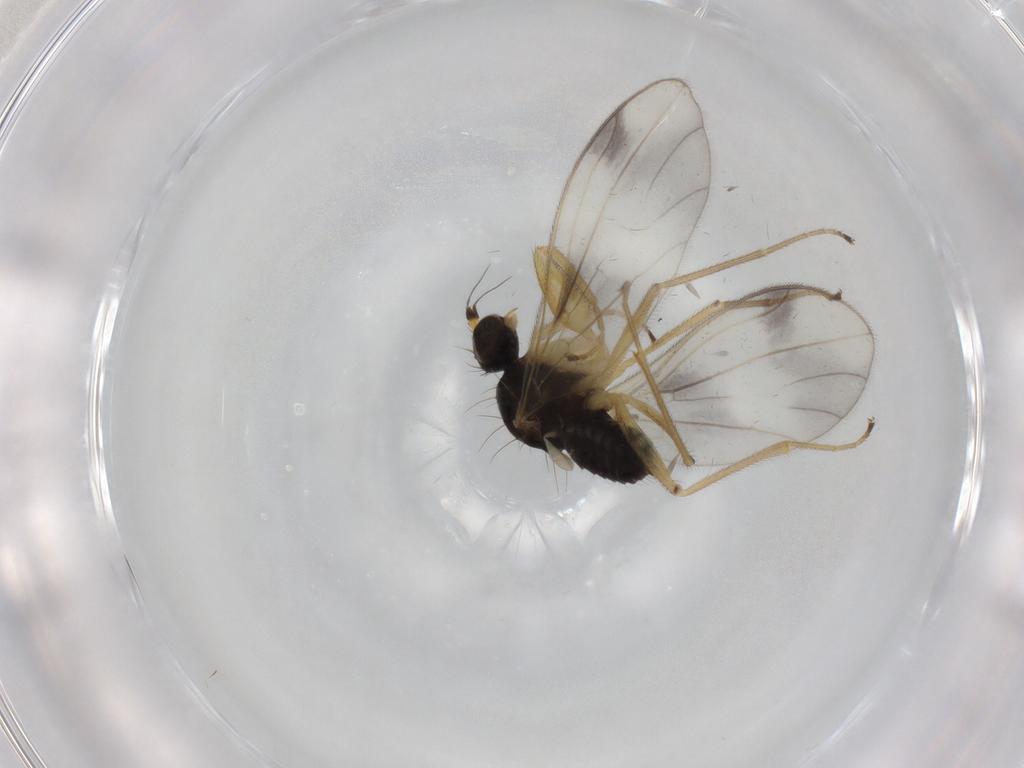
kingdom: Animalia
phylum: Arthropoda
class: Insecta
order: Diptera
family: Empididae
